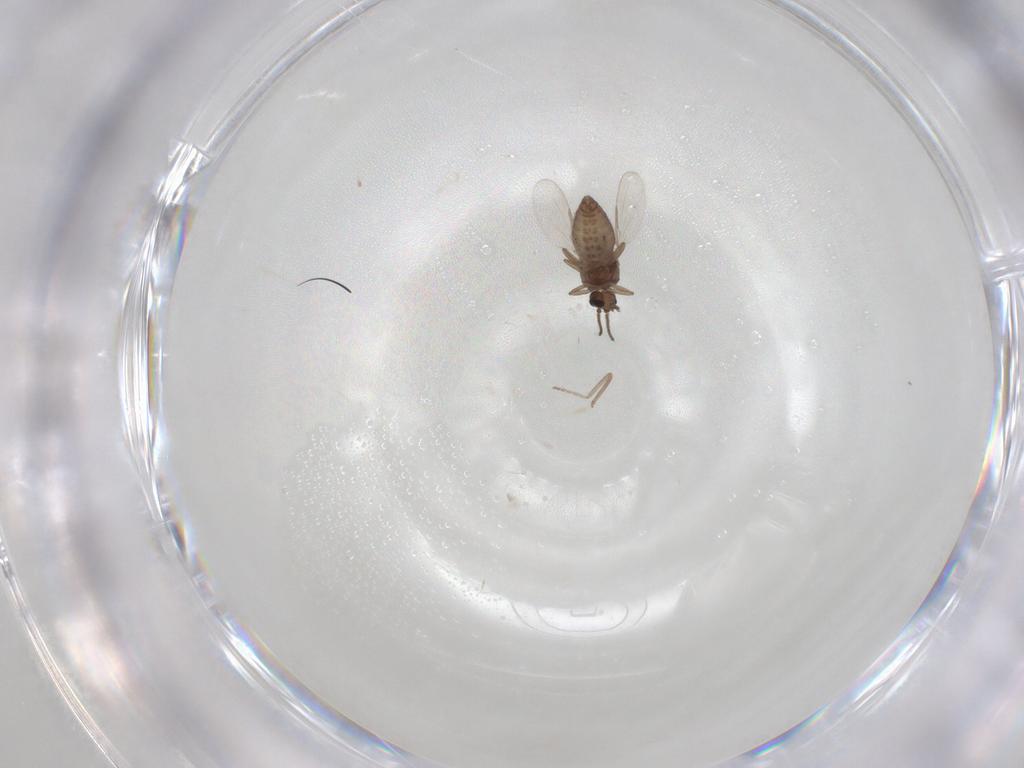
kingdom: Animalia
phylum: Arthropoda
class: Insecta
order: Diptera
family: Ceratopogonidae
